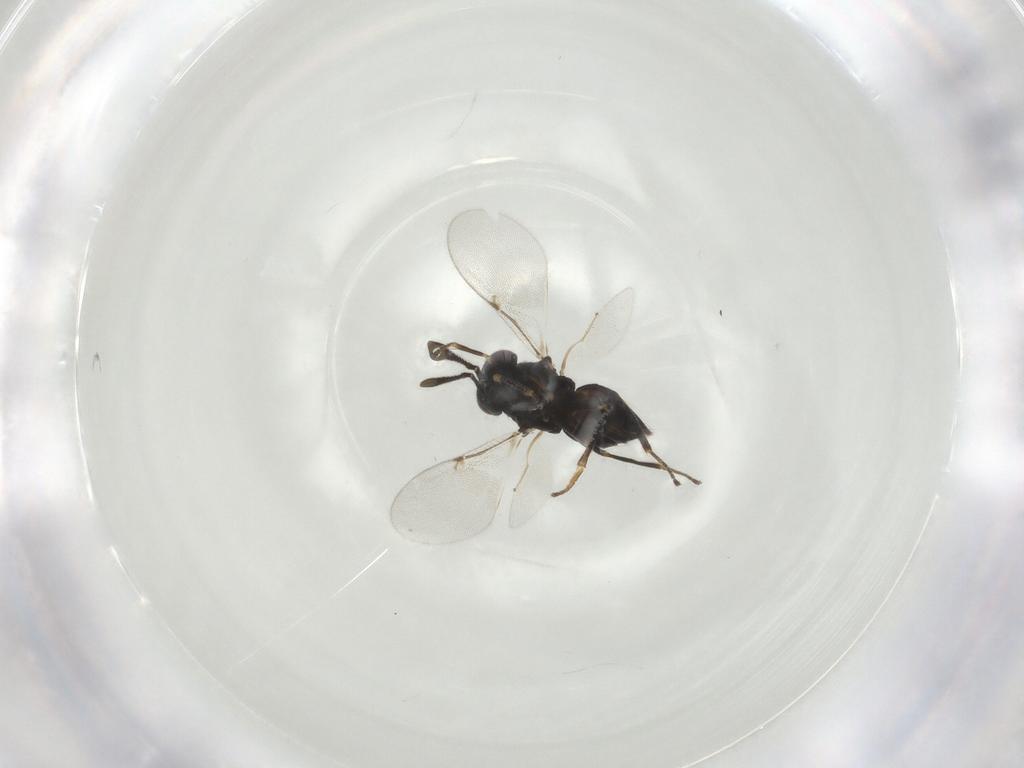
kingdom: Animalia
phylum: Arthropoda
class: Insecta
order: Hymenoptera
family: Encyrtidae
